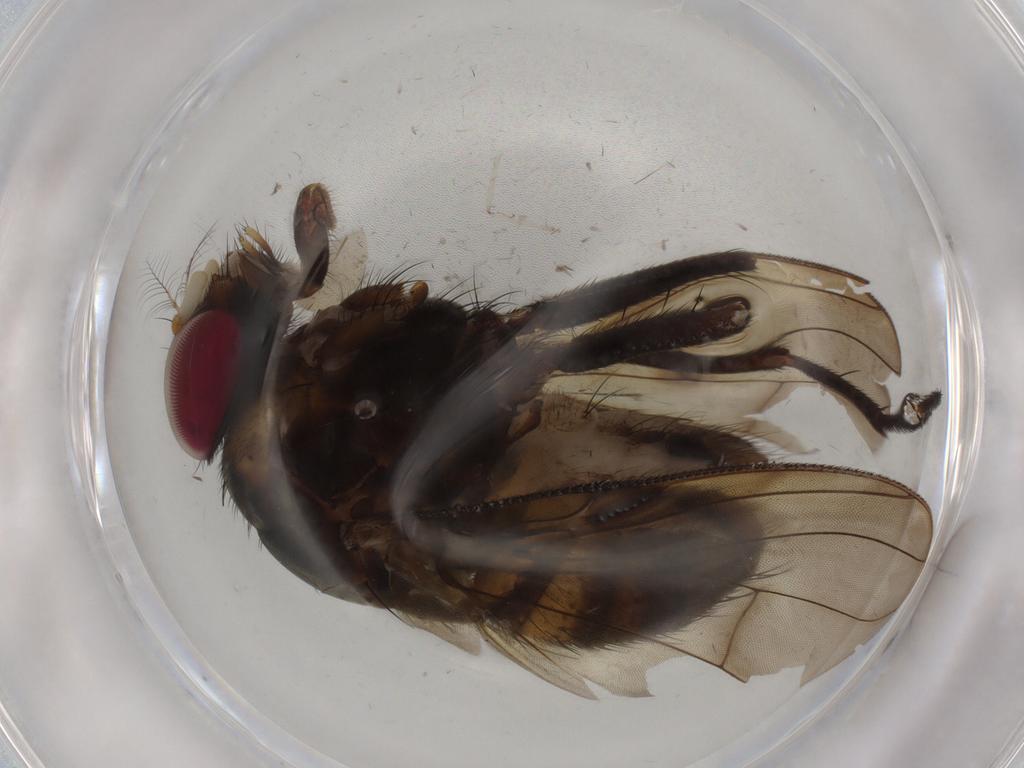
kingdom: Animalia
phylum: Arthropoda
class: Insecta
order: Diptera
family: Muscidae
